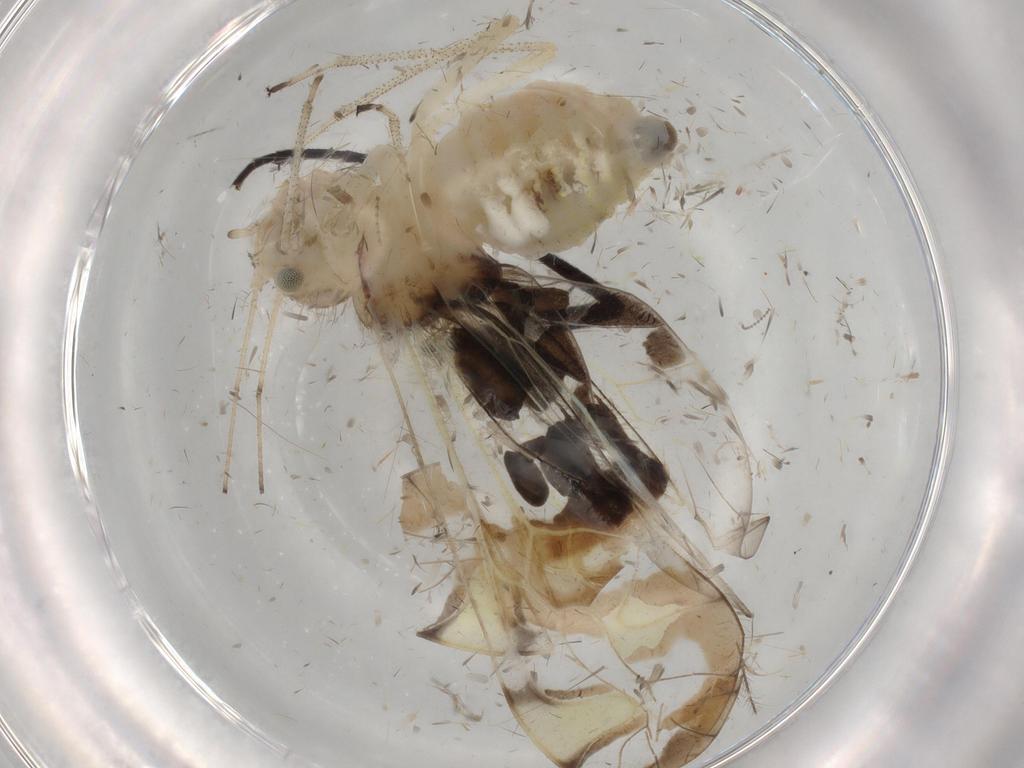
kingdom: Animalia
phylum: Arthropoda
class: Insecta
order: Psocodea
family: Amphipsocidae
